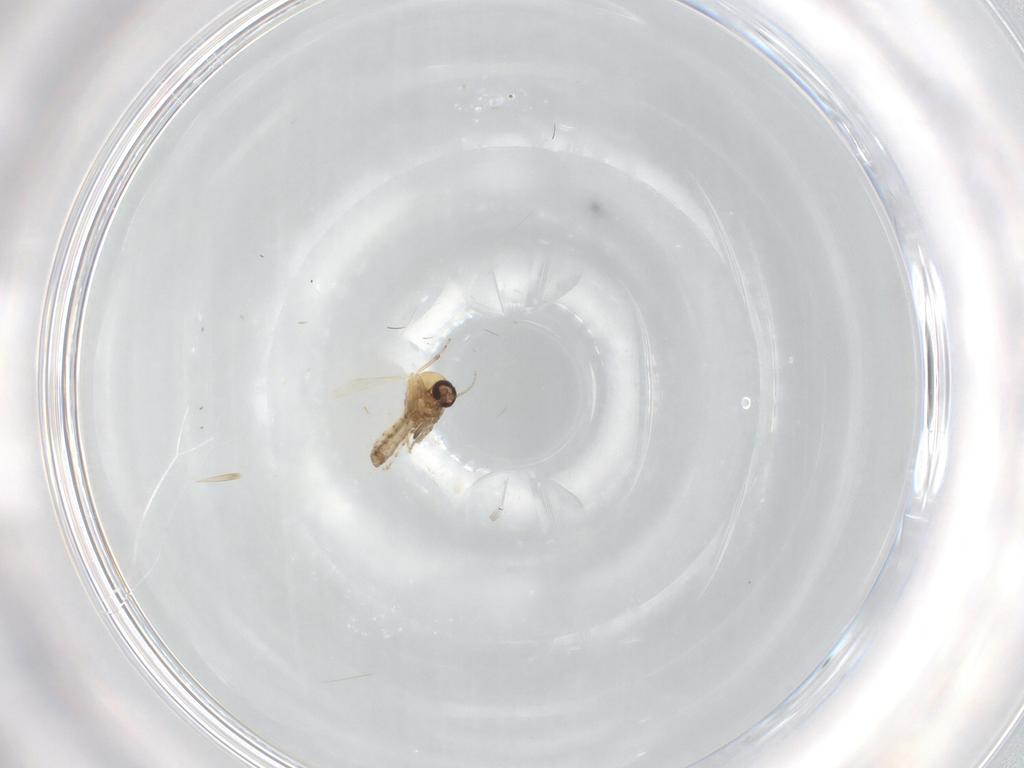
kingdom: Animalia
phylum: Arthropoda
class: Insecta
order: Diptera
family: Ceratopogonidae
